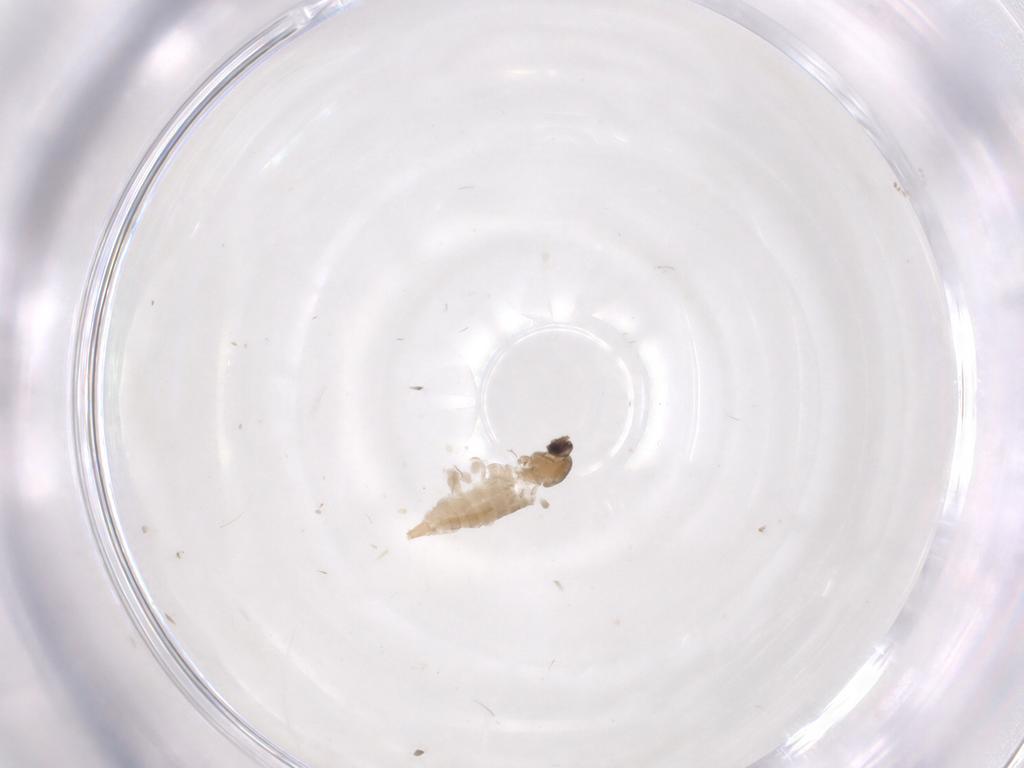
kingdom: Animalia
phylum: Arthropoda
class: Insecta
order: Diptera
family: Cecidomyiidae
